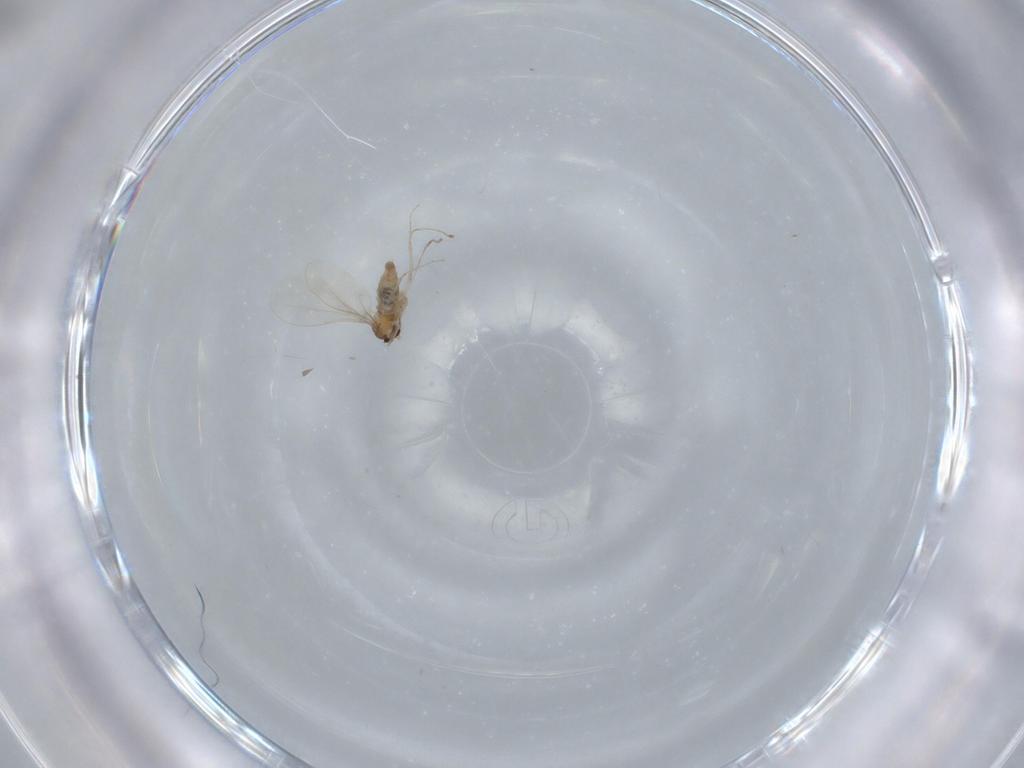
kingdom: Animalia
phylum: Arthropoda
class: Insecta
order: Diptera
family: Cecidomyiidae
